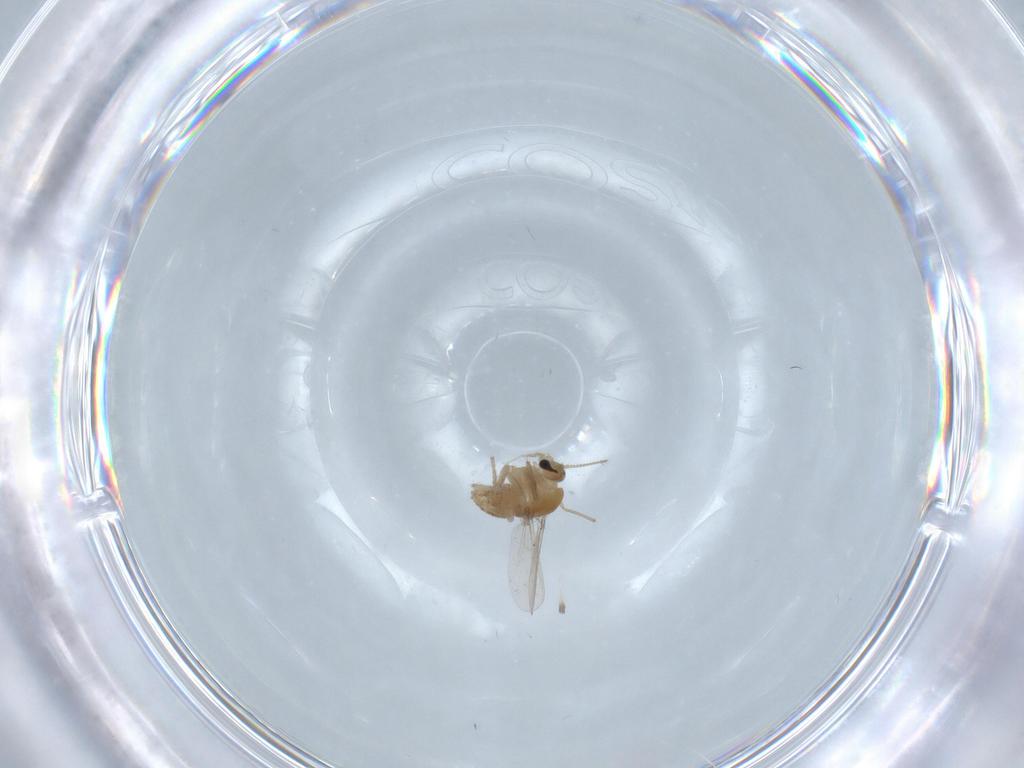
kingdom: Animalia
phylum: Arthropoda
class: Insecta
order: Diptera
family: Chironomidae
